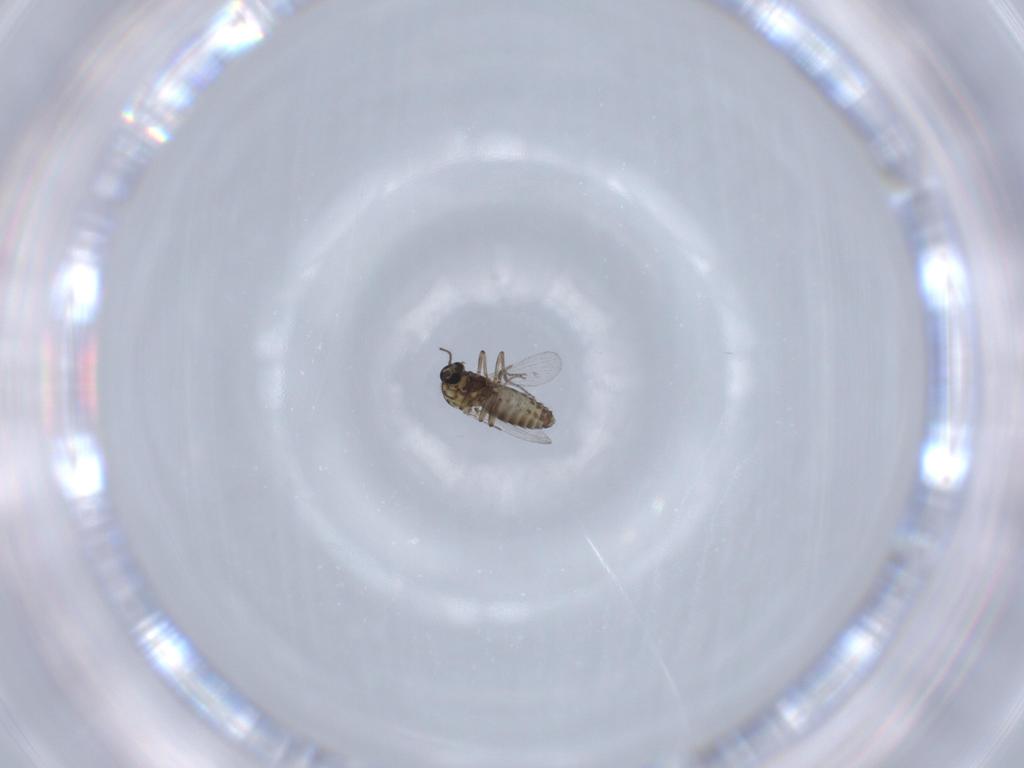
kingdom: Animalia
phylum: Arthropoda
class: Insecta
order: Diptera
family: Ceratopogonidae
